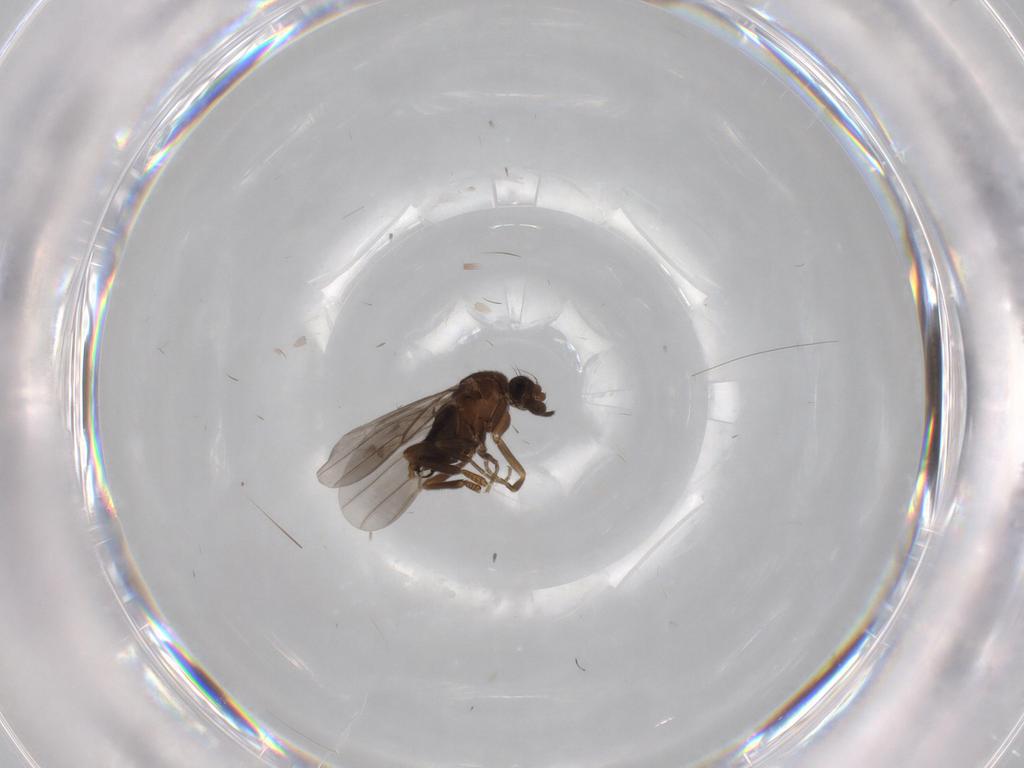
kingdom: Animalia
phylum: Arthropoda
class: Insecta
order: Diptera
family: Phoridae
